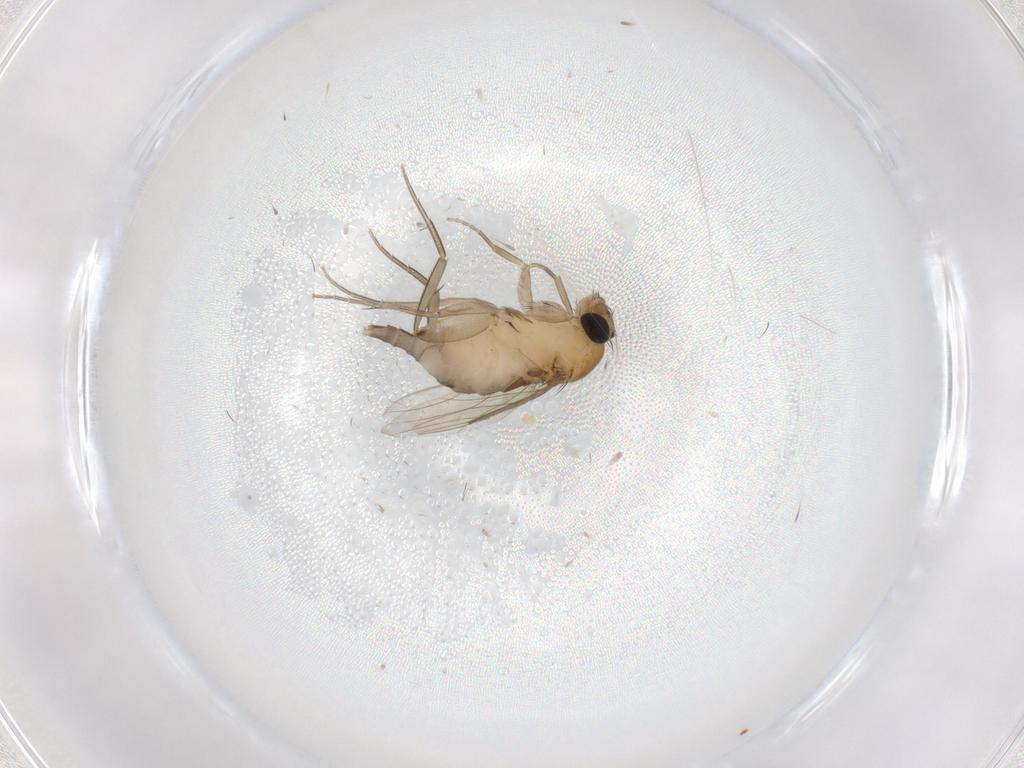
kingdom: Animalia
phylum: Arthropoda
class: Insecta
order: Diptera
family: Phoridae
